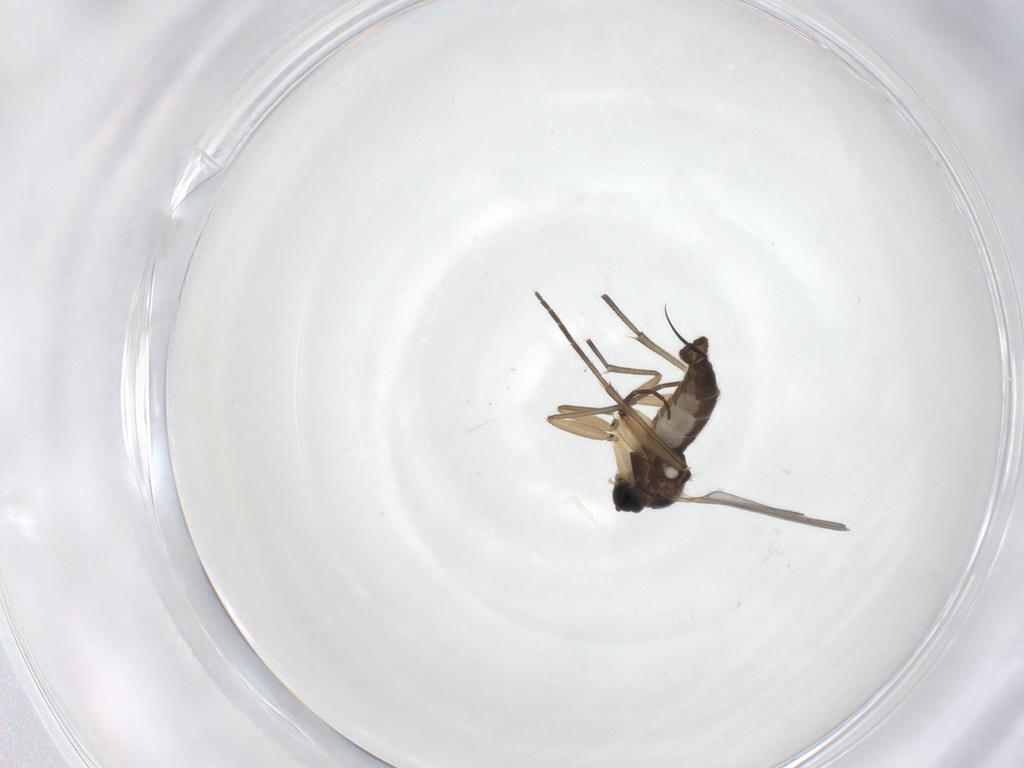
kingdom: Animalia
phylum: Arthropoda
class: Insecta
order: Diptera
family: Sciaridae
